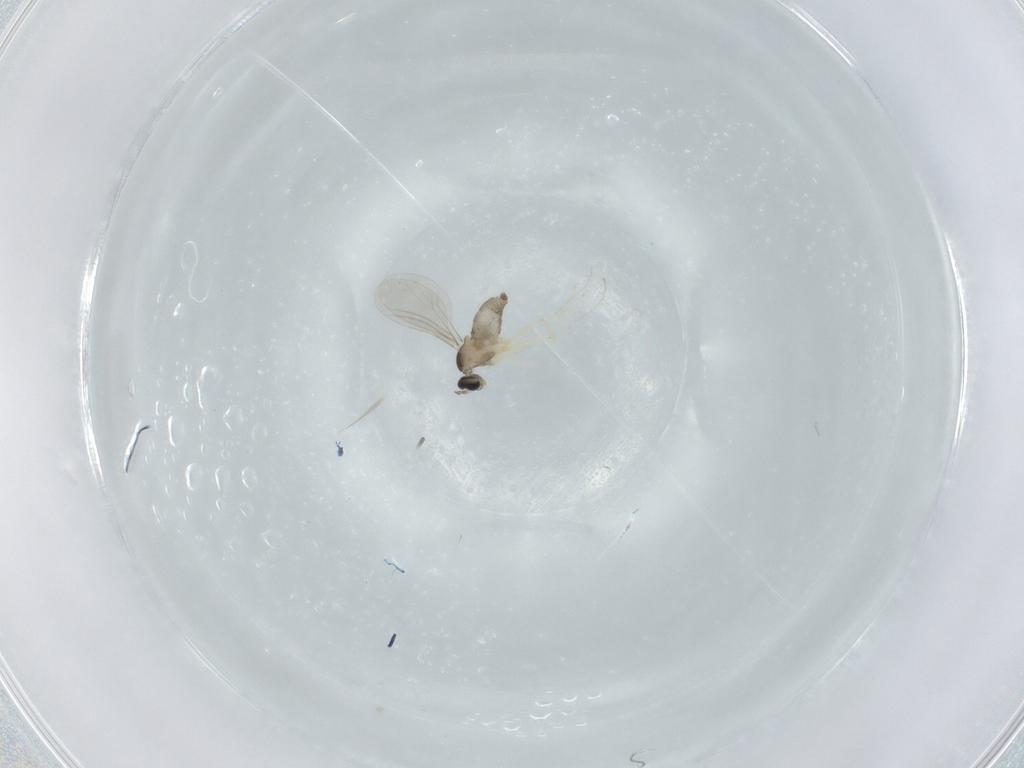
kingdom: Animalia
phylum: Arthropoda
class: Insecta
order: Diptera
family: Cecidomyiidae
